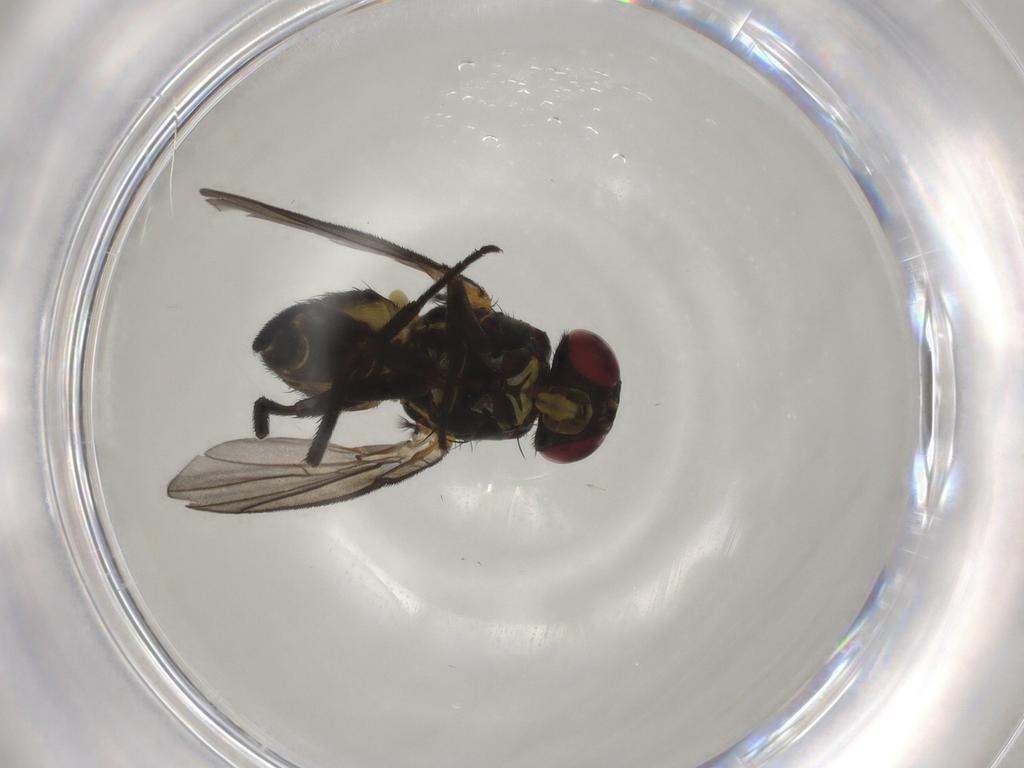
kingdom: Animalia
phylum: Arthropoda
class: Insecta
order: Diptera
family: Agromyzidae
